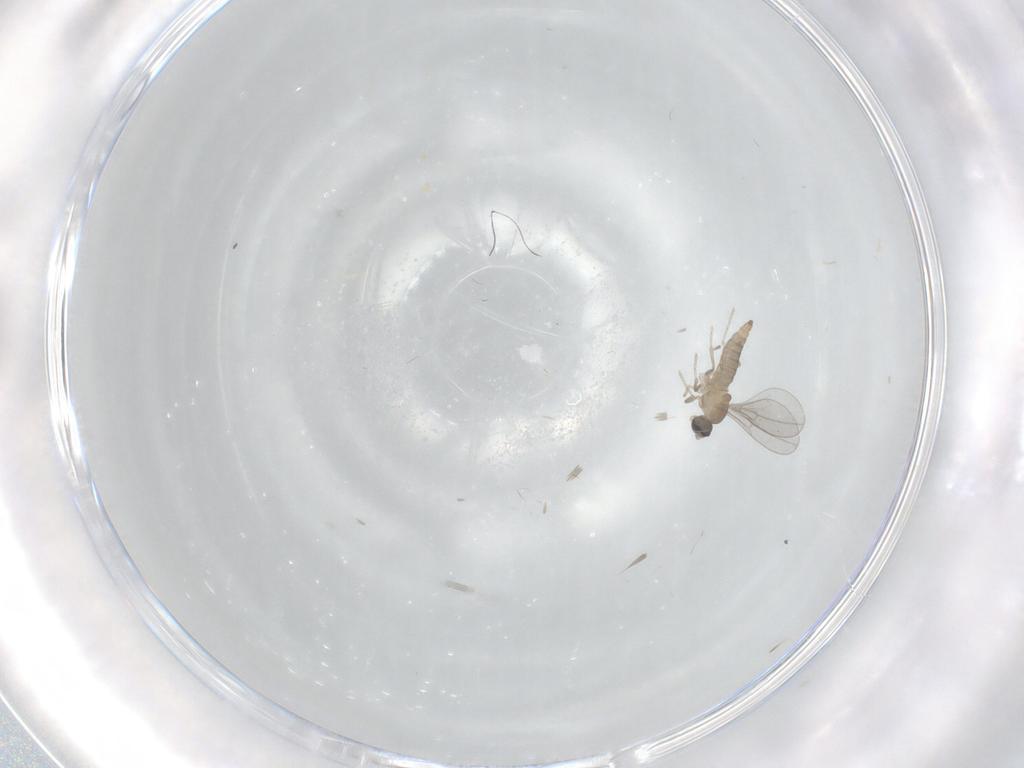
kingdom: Animalia
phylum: Arthropoda
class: Insecta
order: Diptera
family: Cecidomyiidae
